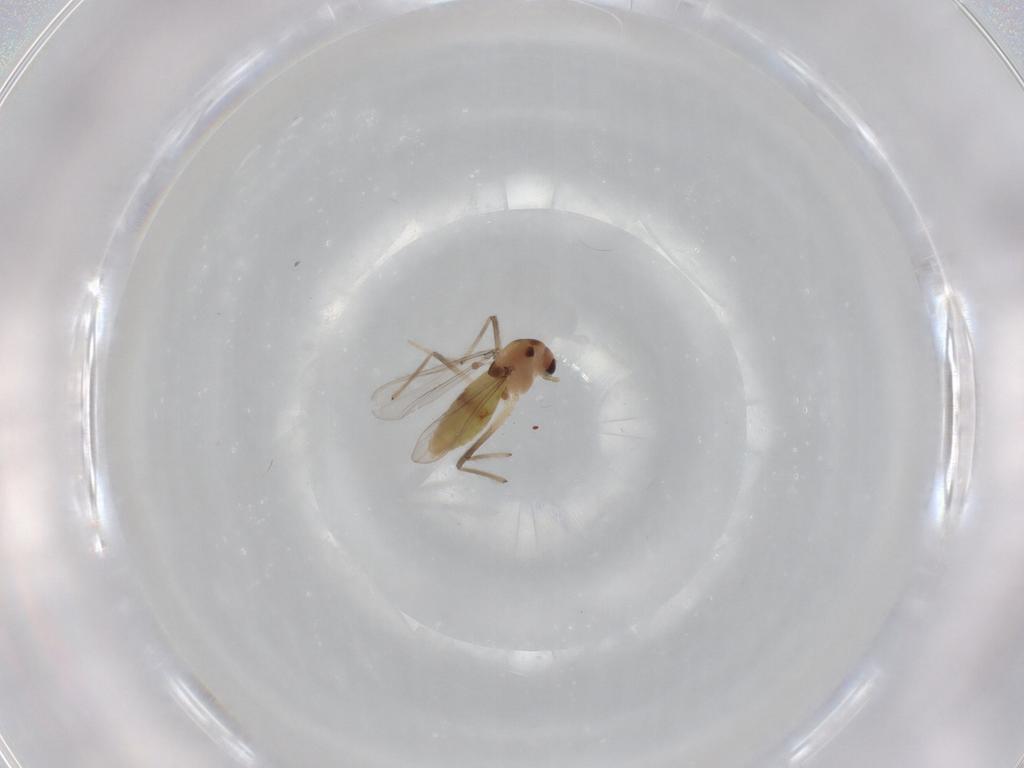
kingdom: Animalia
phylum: Arthropoda
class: Insecta
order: Diptera
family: Chironomidae
